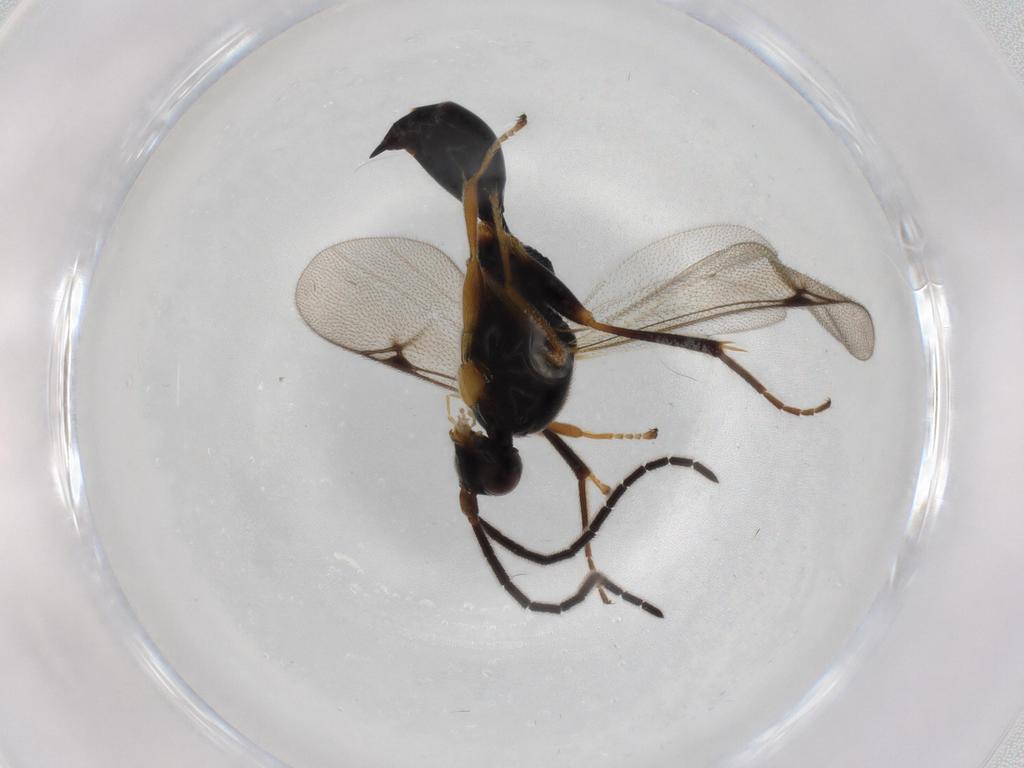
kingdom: Animalia
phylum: Arthropoda
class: Insecta
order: Hymenoptera
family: Proctotrupidae
